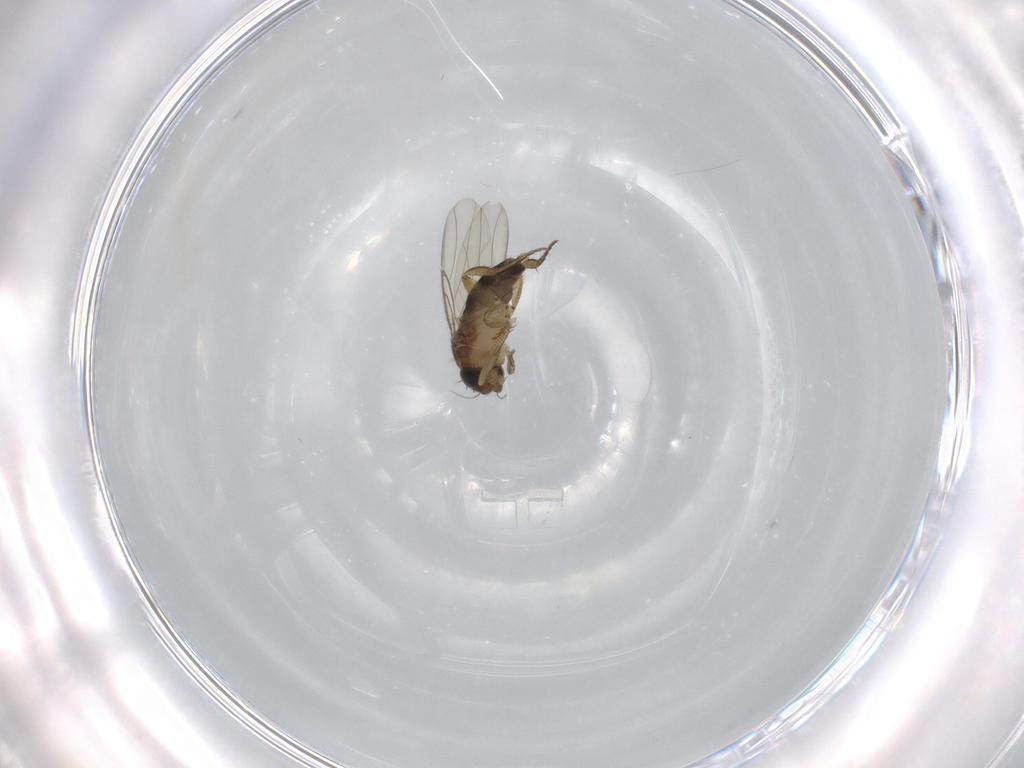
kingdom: Animalia
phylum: Arthropoda
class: Insecta
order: Diptera
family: Phoridae
